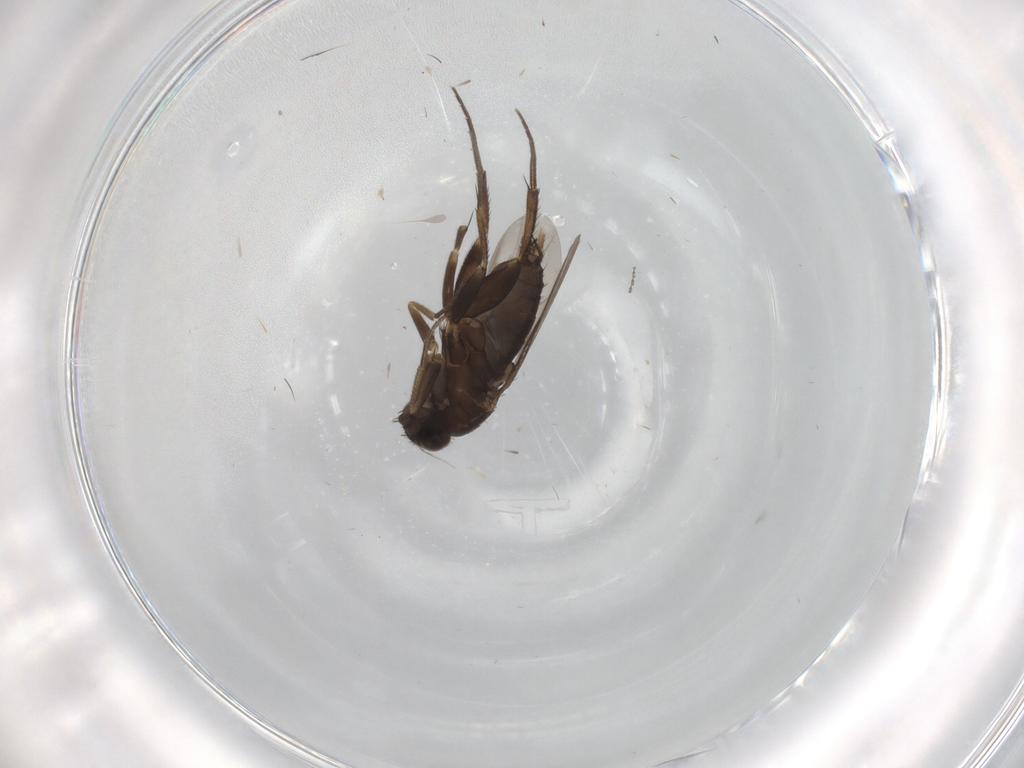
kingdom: Animalia
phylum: Arthropoda
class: Insecta
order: Diptera
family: Phoridae
